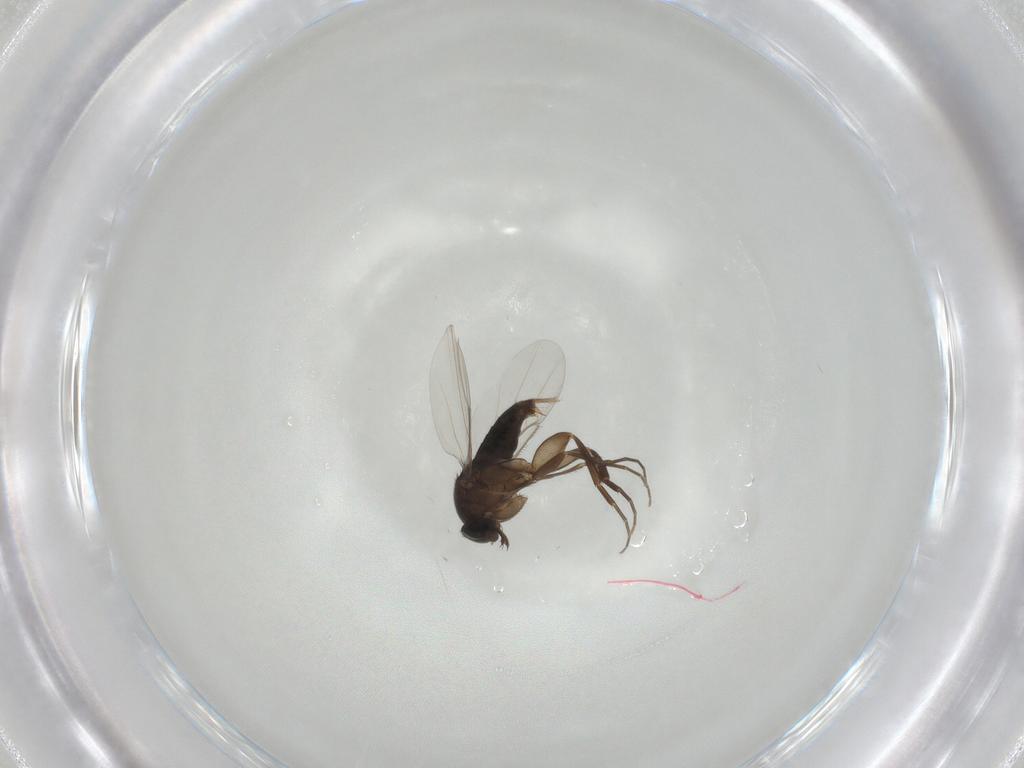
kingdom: Animalia
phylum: Arthropoda
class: Insecta
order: Diptera
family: Phoridae
